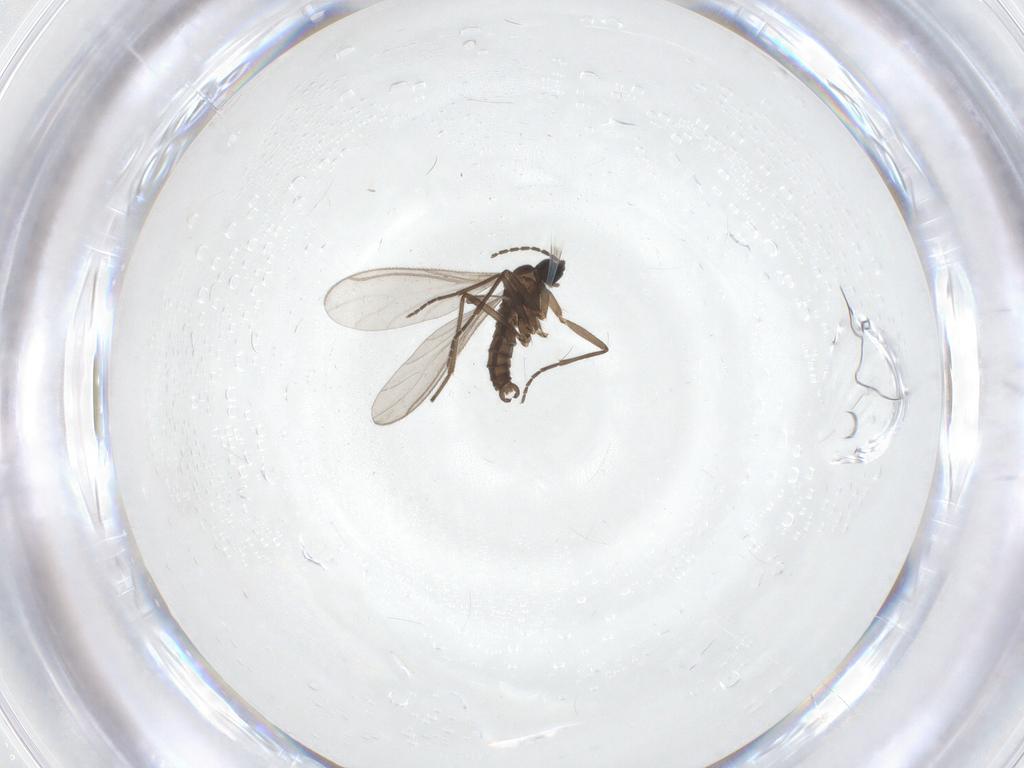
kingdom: Animalia
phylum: Arthropoda
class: Insecta
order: Diptera
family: Sciaridae
